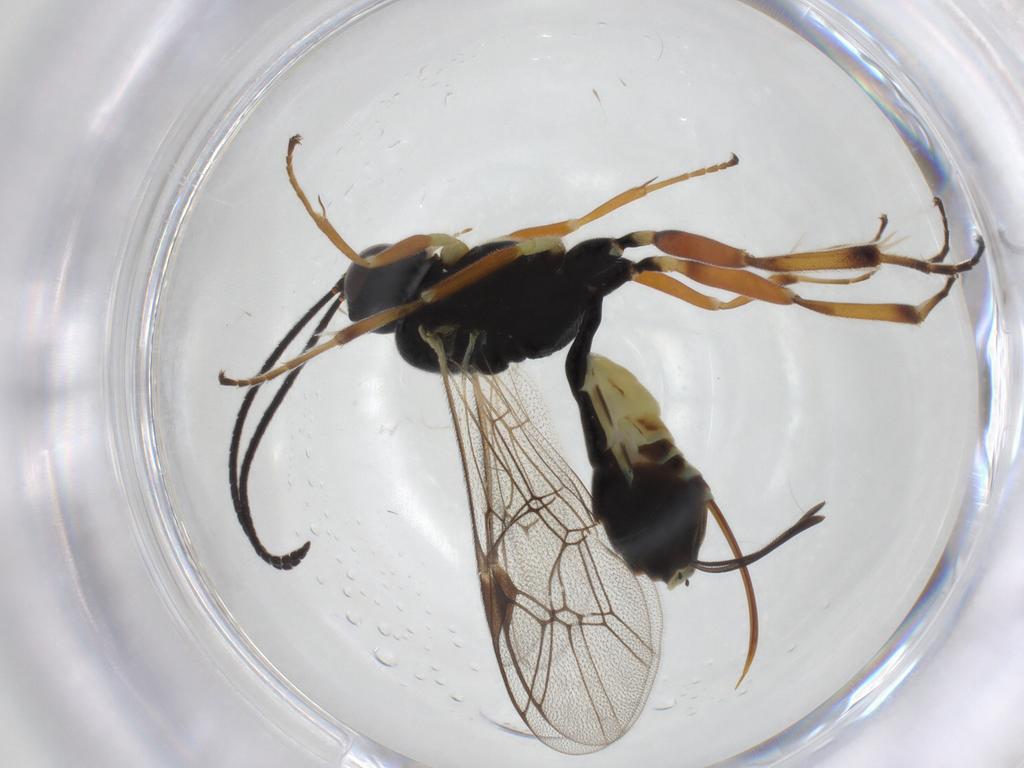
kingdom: Animalia
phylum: Arthropoda
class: Insecta
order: Hymenoptera
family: Ichneumonidae
